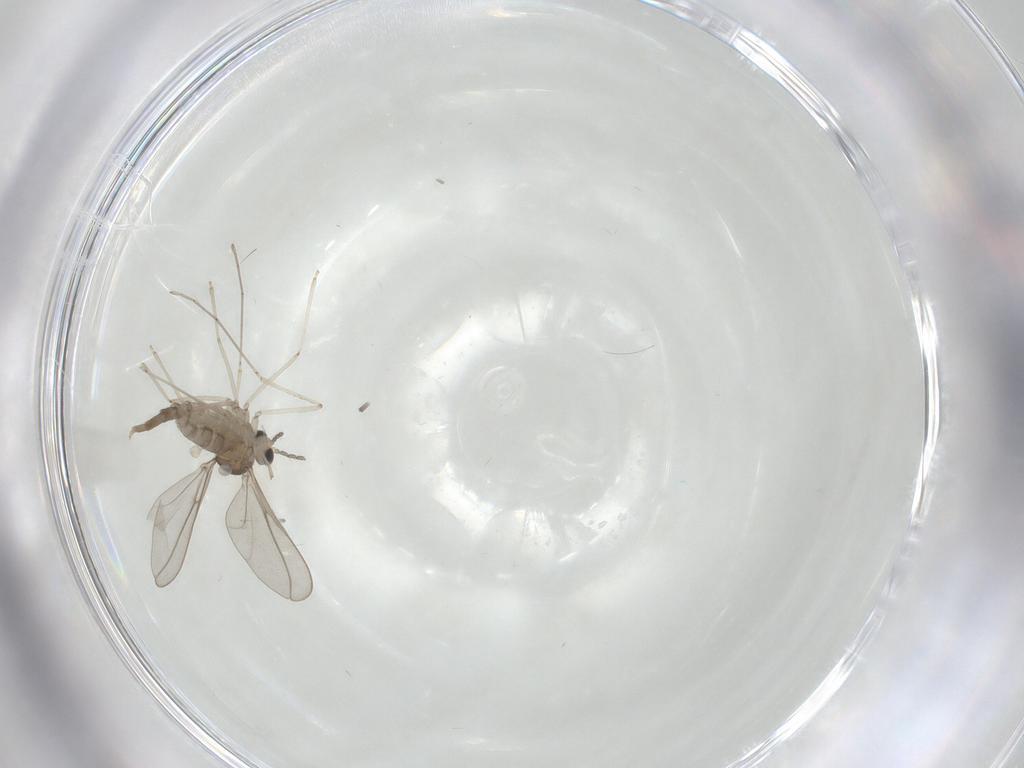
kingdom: Animalia
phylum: Arthropoda
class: Insecta
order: Diptera
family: Cecidomyiidae
